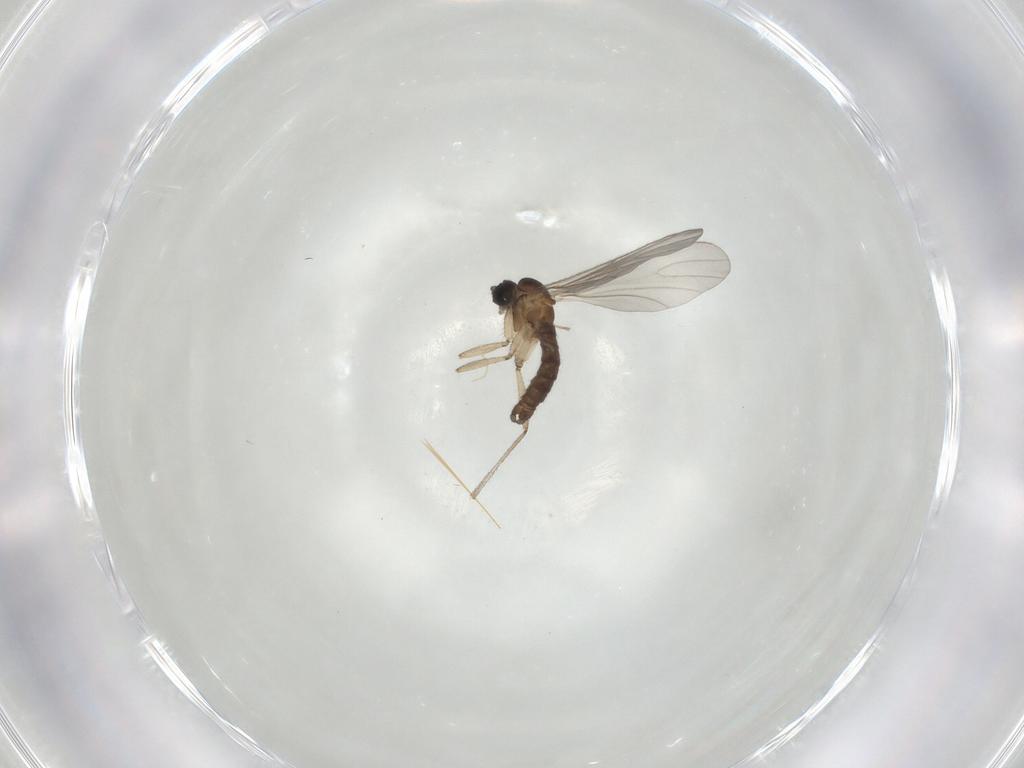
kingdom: Animalia
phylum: Arthropoda
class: Insecta
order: Diptera
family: Chironomidae
